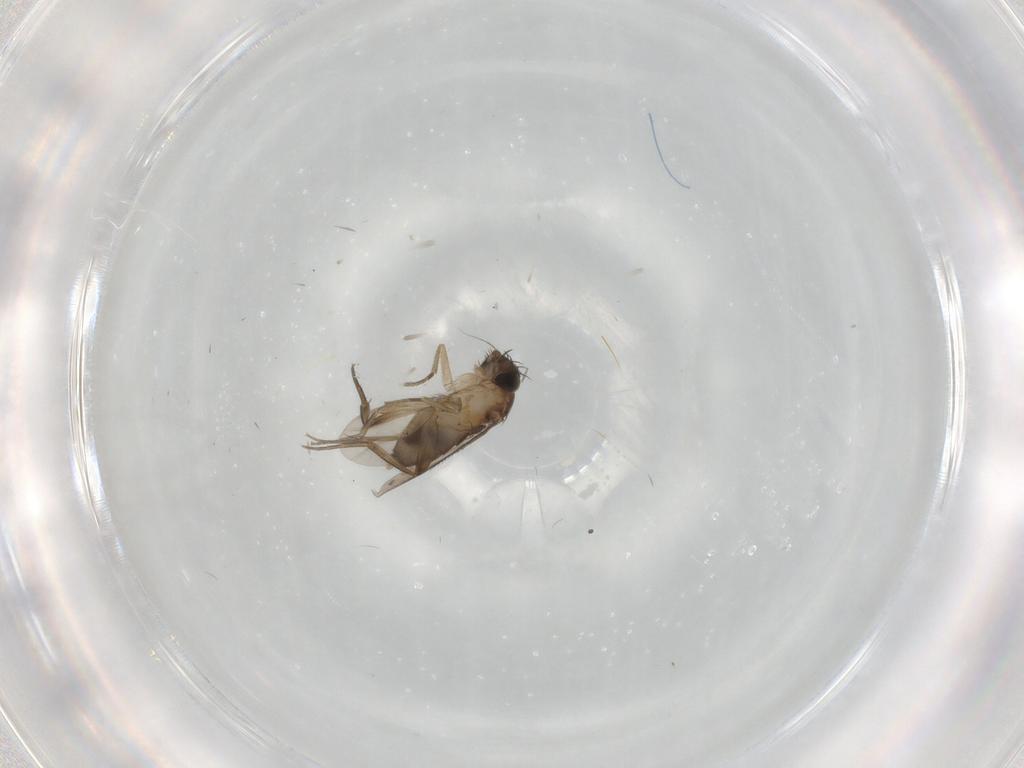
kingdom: Animalia
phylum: Arthropoda
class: Insecta
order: Diptera
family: Phoridae
